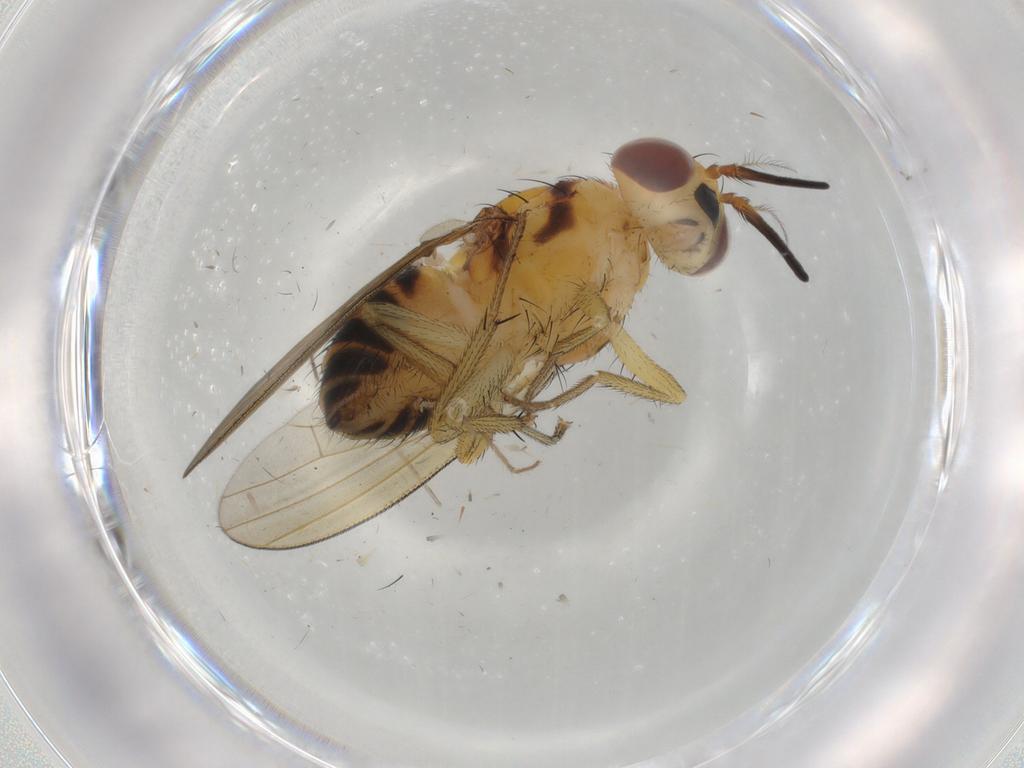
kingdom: Animalia
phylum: Arthropoda
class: Insecta
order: Diptera
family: Lauxaniidae
